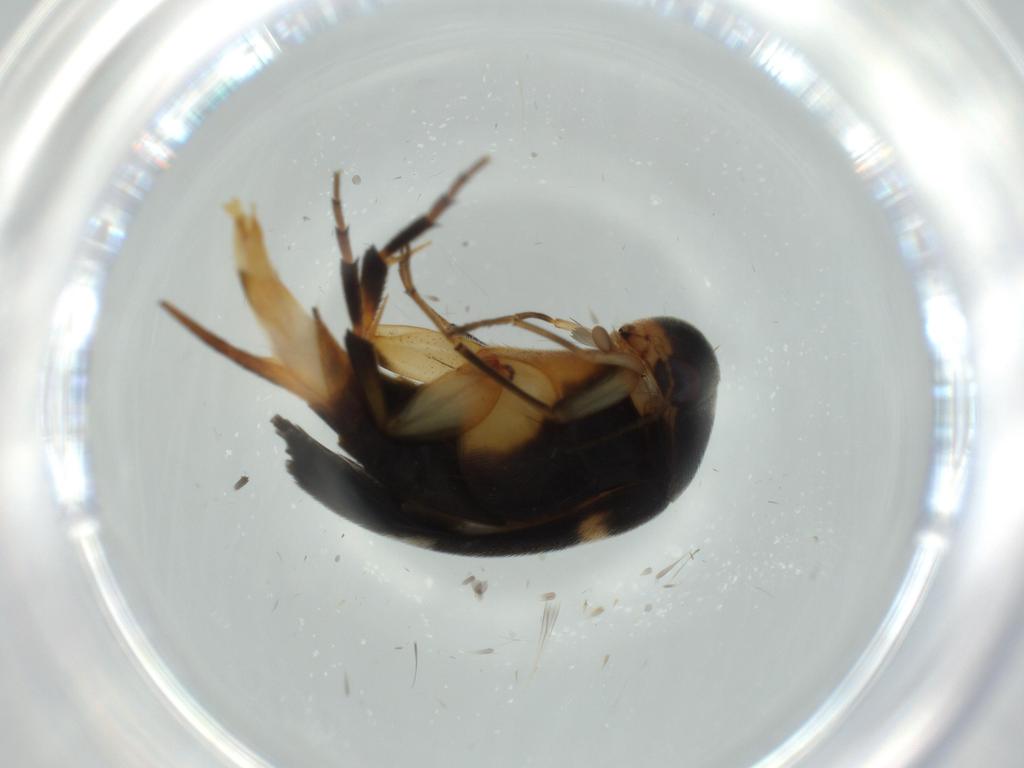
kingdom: Animalia
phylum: Arthropoda
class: Insecta
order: Coleoptera
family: Mordellidae
